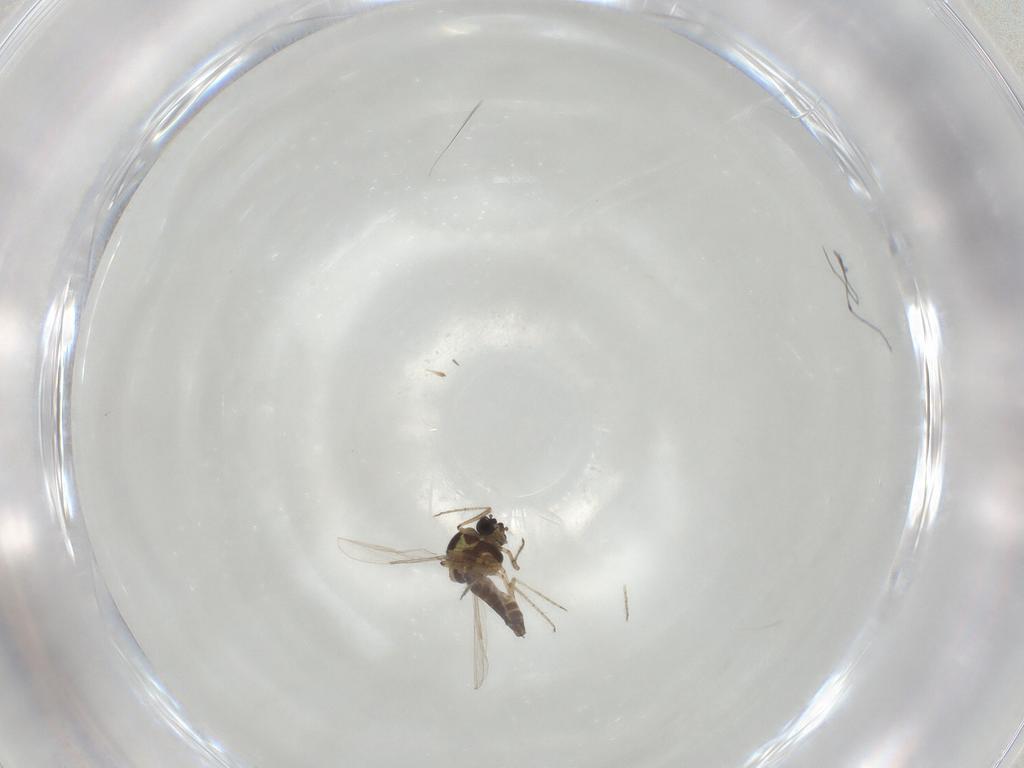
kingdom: Animalia
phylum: Arthropoda
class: Insecta
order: Diptera
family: Ceratopogonidae
